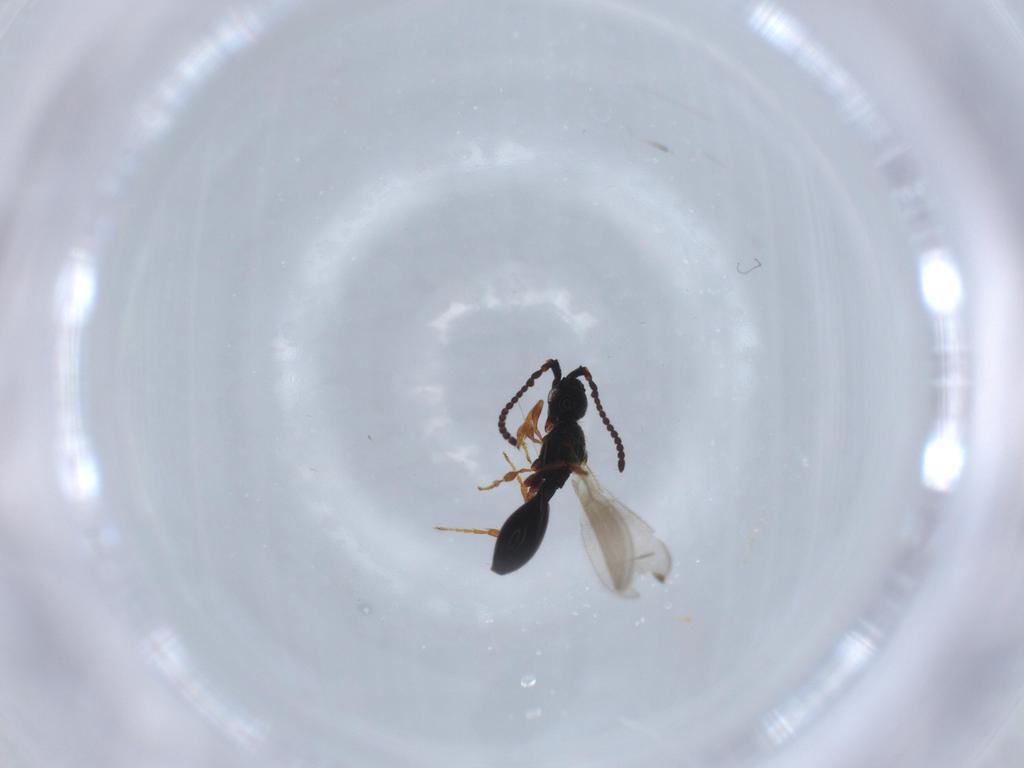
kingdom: Animalia
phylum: Arthropoda
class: Insecta
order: Hymenoptera
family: Diapriidae
